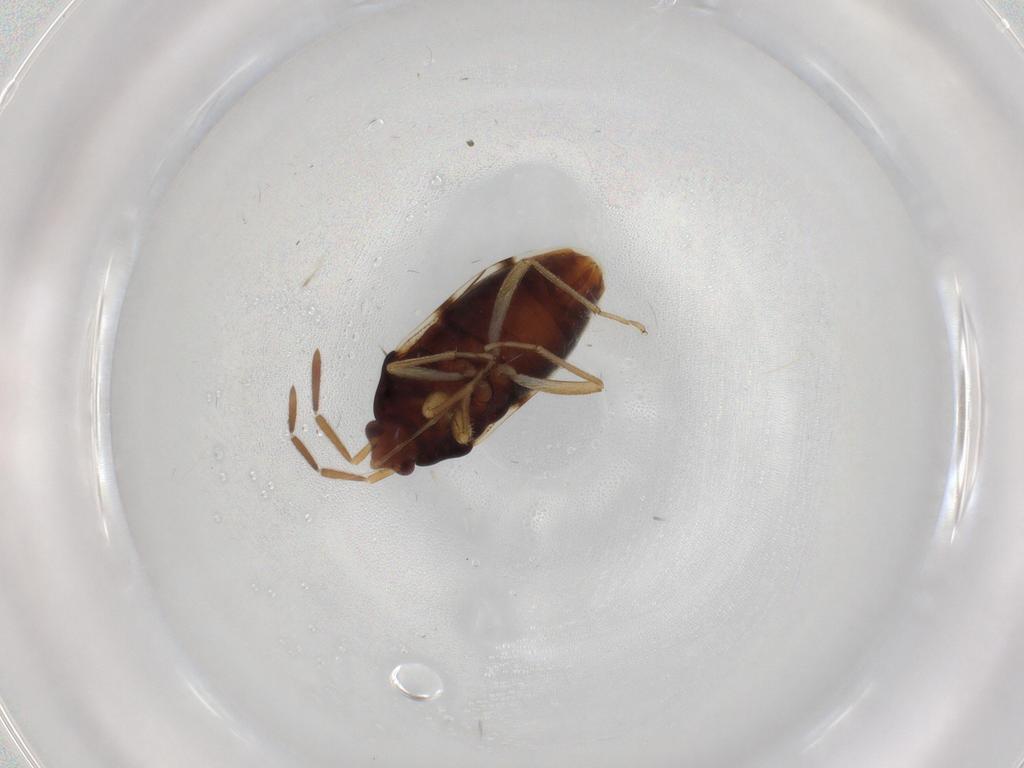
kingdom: Animalia
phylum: Arthropoda
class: Insecta
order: Hemiptera
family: Rhyparochromidae
